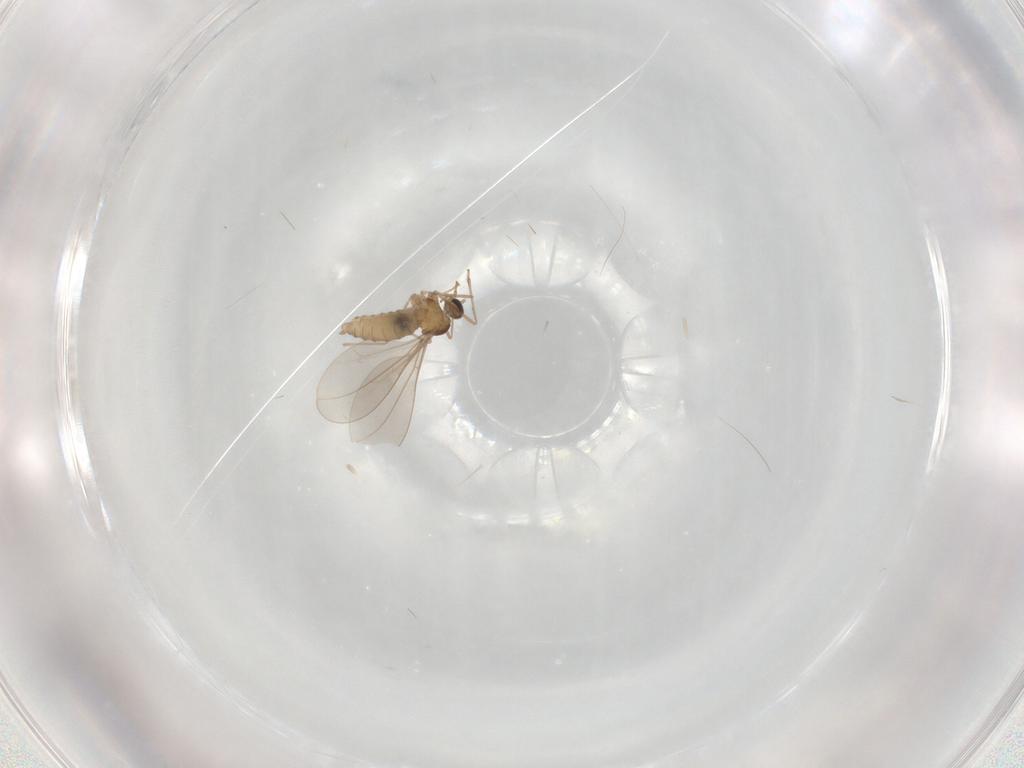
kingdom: Animalia
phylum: Arthropoda
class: Insecta
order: Diptera
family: Cecidomyiidae
